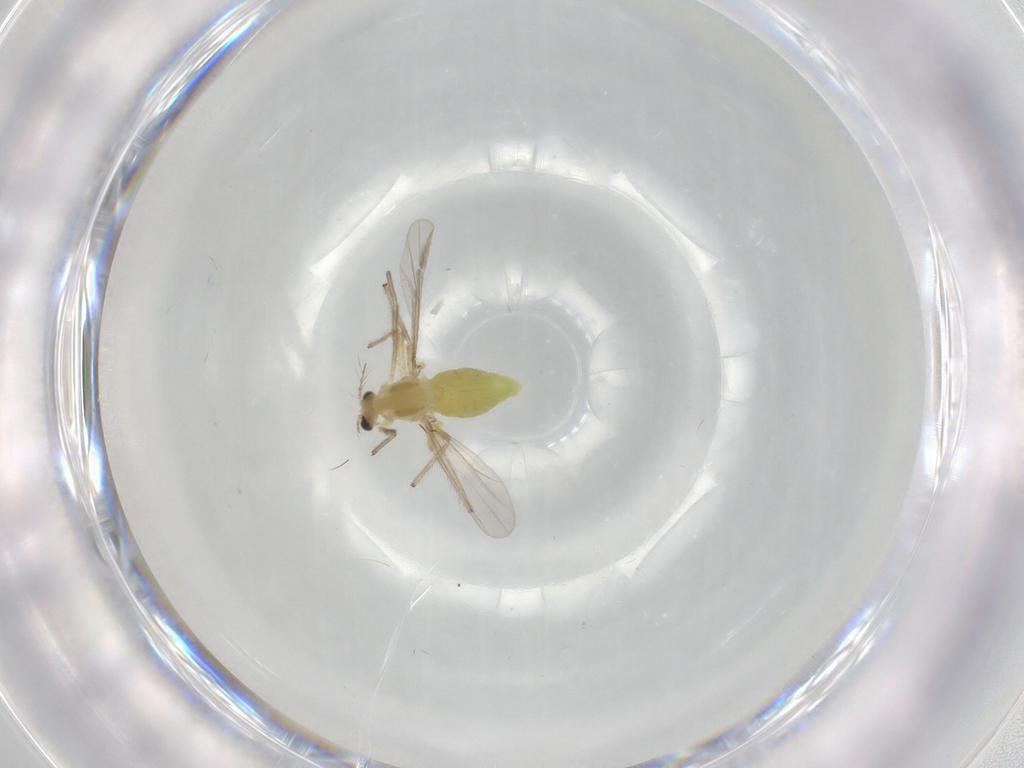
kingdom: Animalia
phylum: Arthropoda
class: Insecta
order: Diptera
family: Chironomidae
